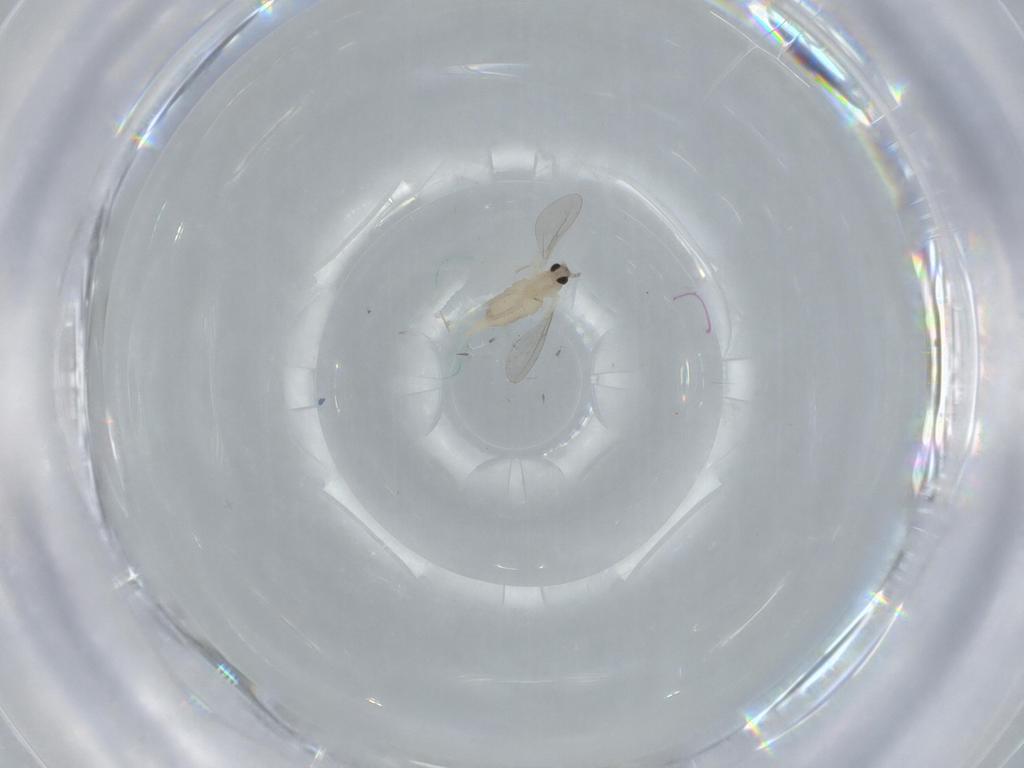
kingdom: Animalia
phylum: Arthropoda
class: Insecta
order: Diptera
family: Cecidomyiidae
